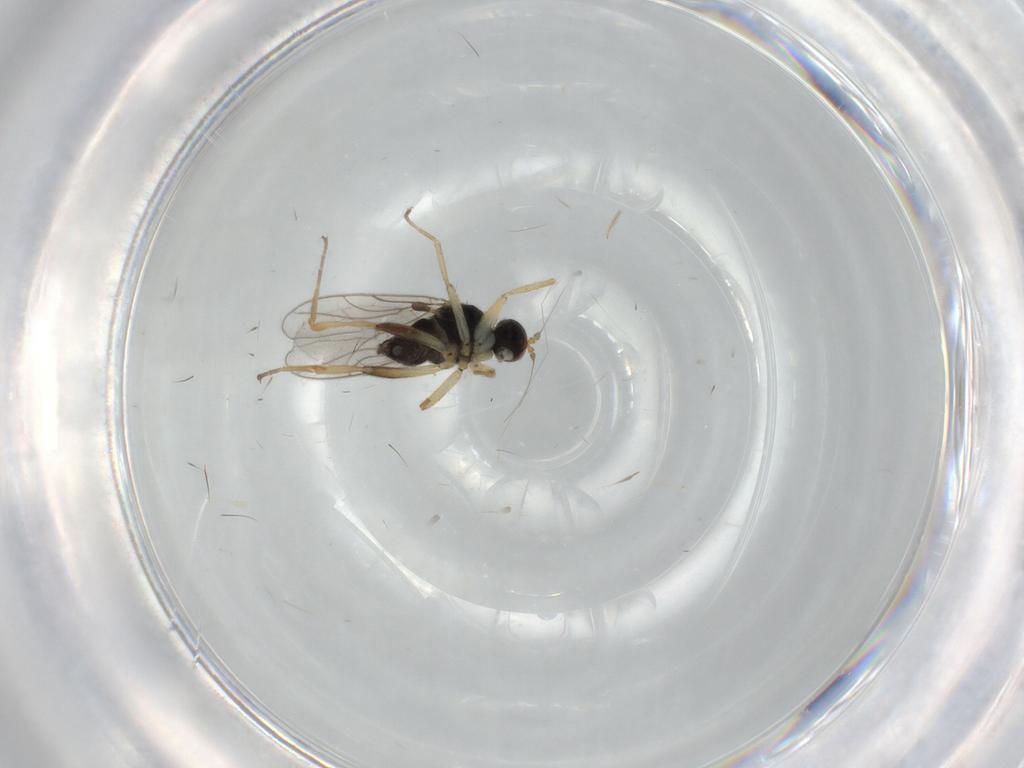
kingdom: Animalia
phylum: Arthropoda
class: Insecta
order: Diptera
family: Hybotidae
